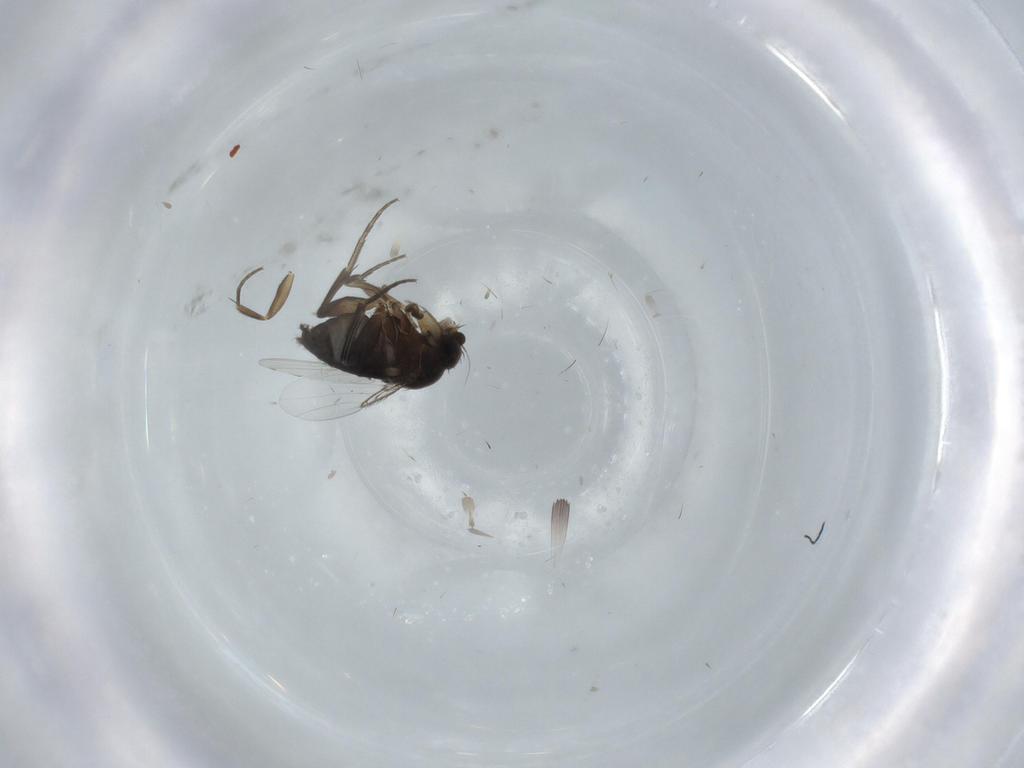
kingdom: Animalia
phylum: Arthropoda
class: Insecta
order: Diptera
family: Phoridae
